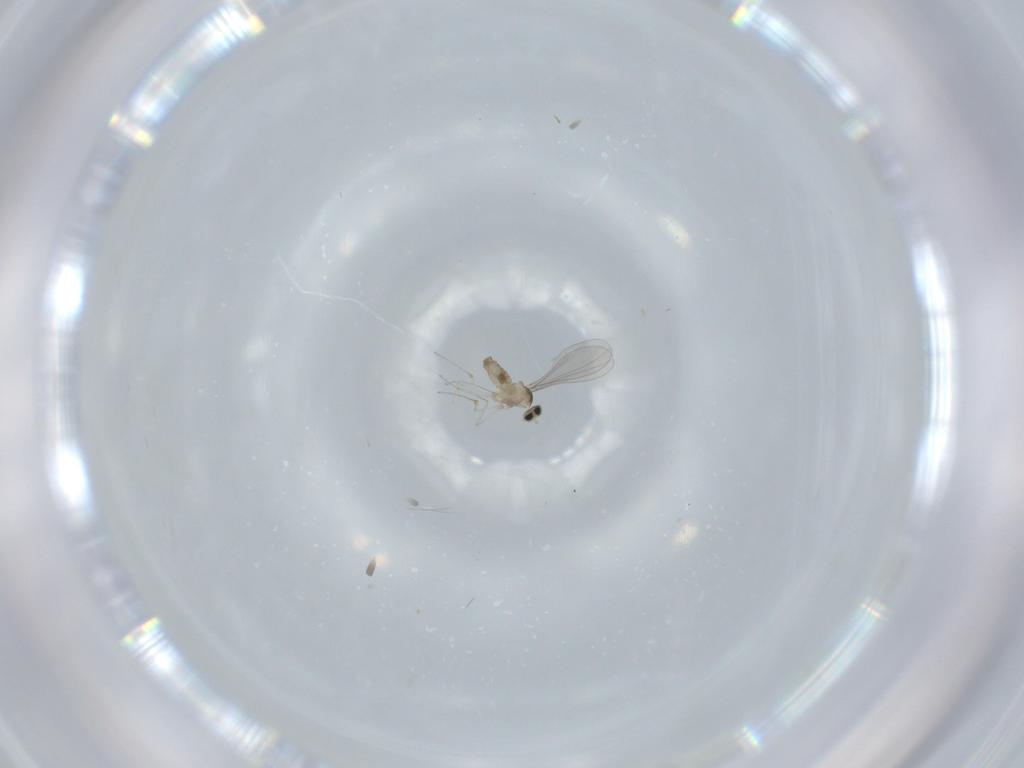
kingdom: Animalia
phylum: Arthropoda
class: Insecta
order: Diptera
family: Cecidomyiidae
